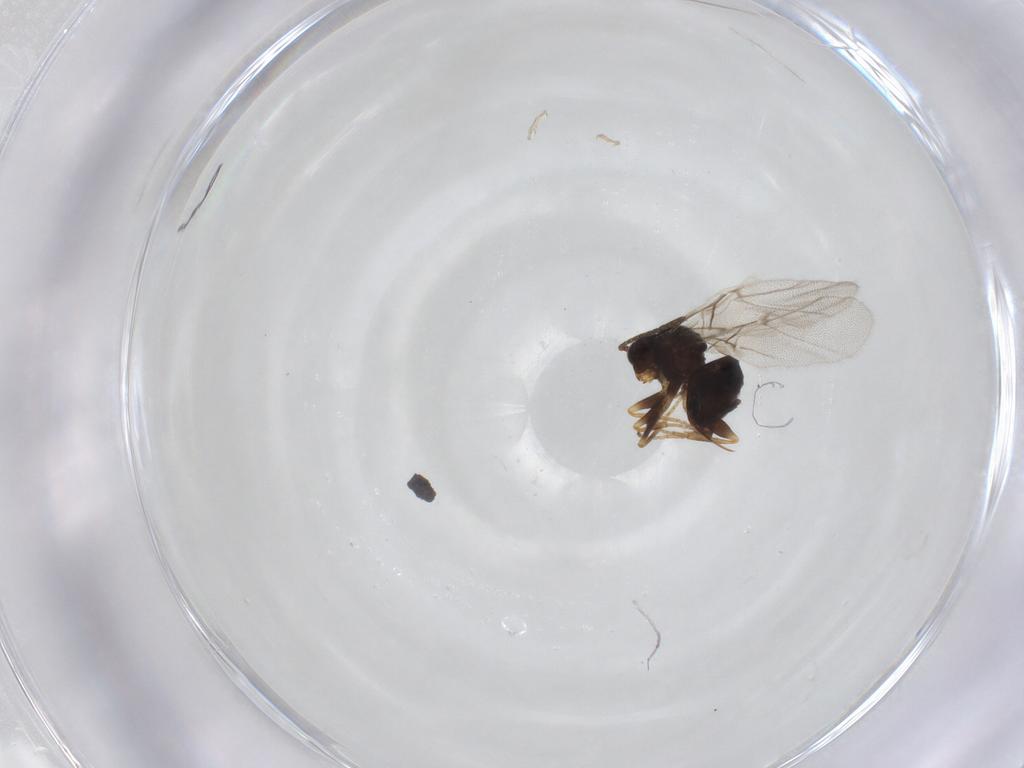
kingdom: Animalia
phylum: Arthropoda
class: Insecta
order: Hymenoptera
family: Cynipidae
